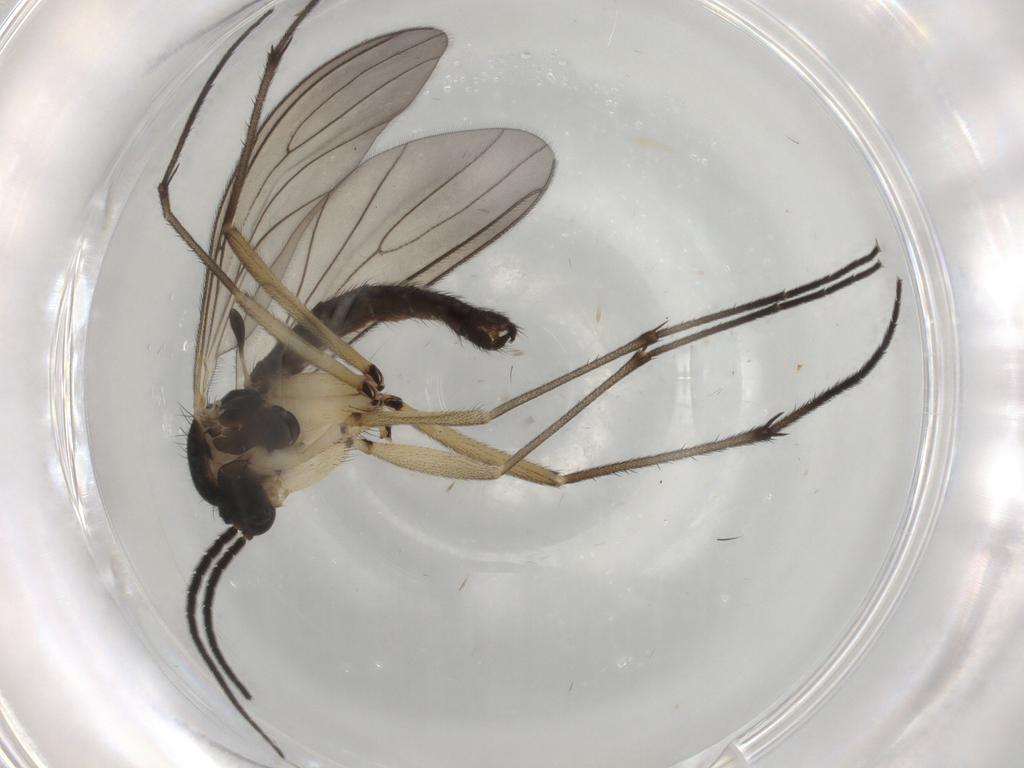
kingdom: Animalia
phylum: Arthropoda
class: Insecta
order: Diptera
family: Sciaridae
